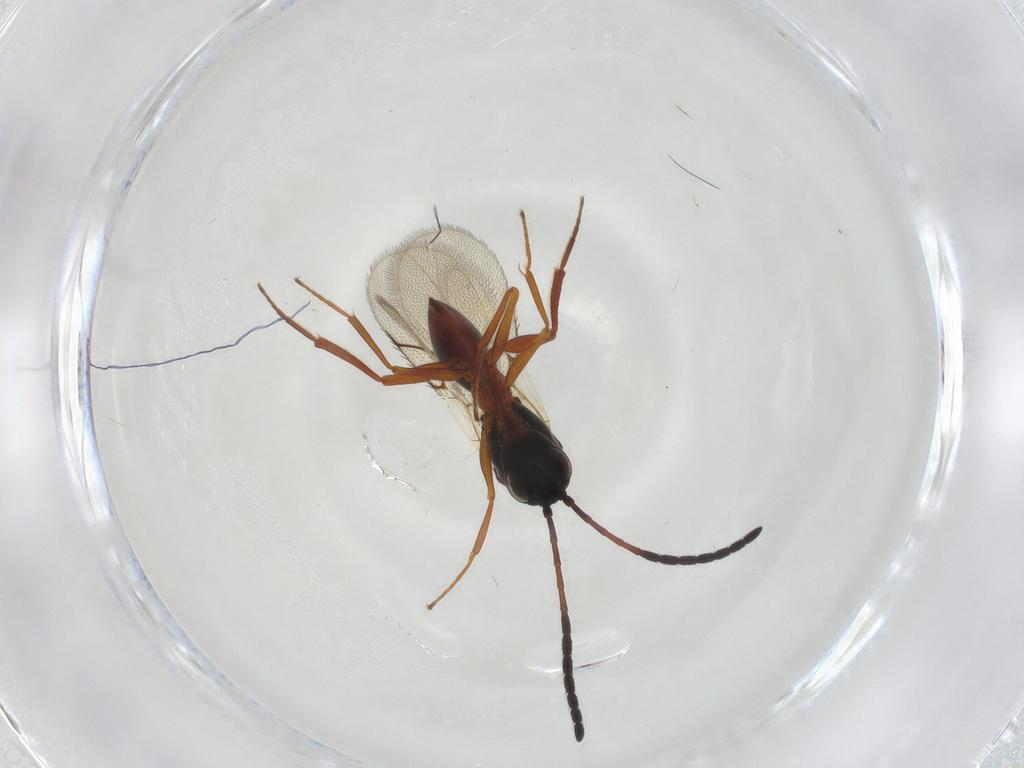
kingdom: Animalia
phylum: Arthropoda
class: Insecta
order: Hymenoptera
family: Figitidae
